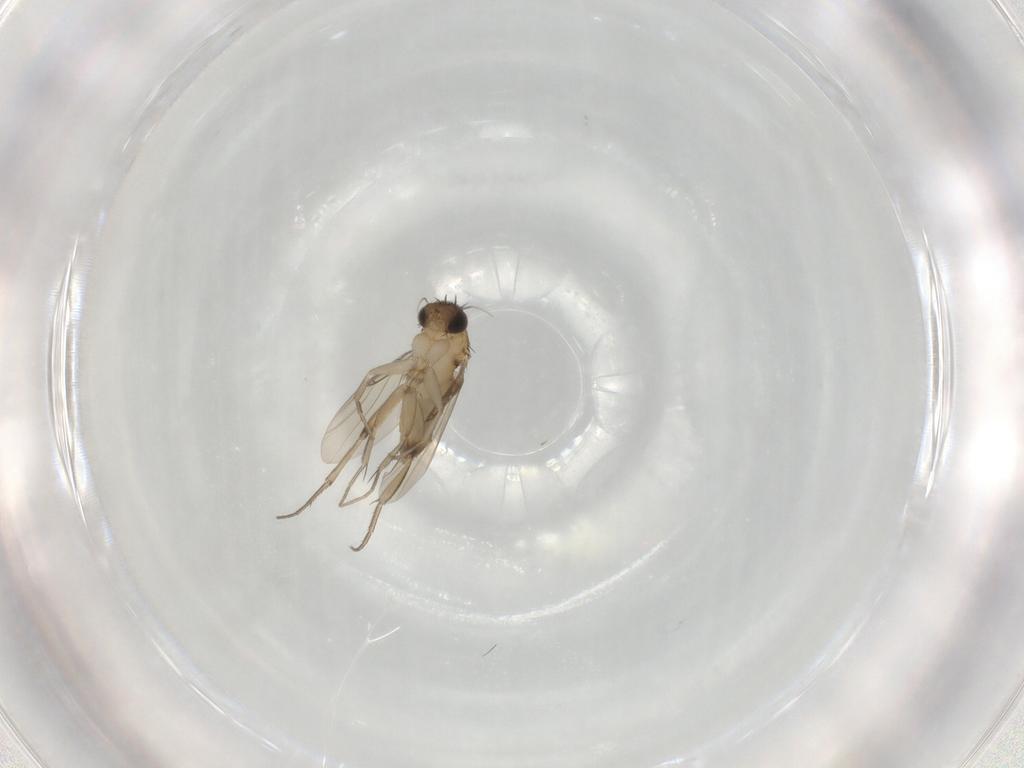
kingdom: Animalia
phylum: Arthropoda
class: Insecta
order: Diptera
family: Phoridae
